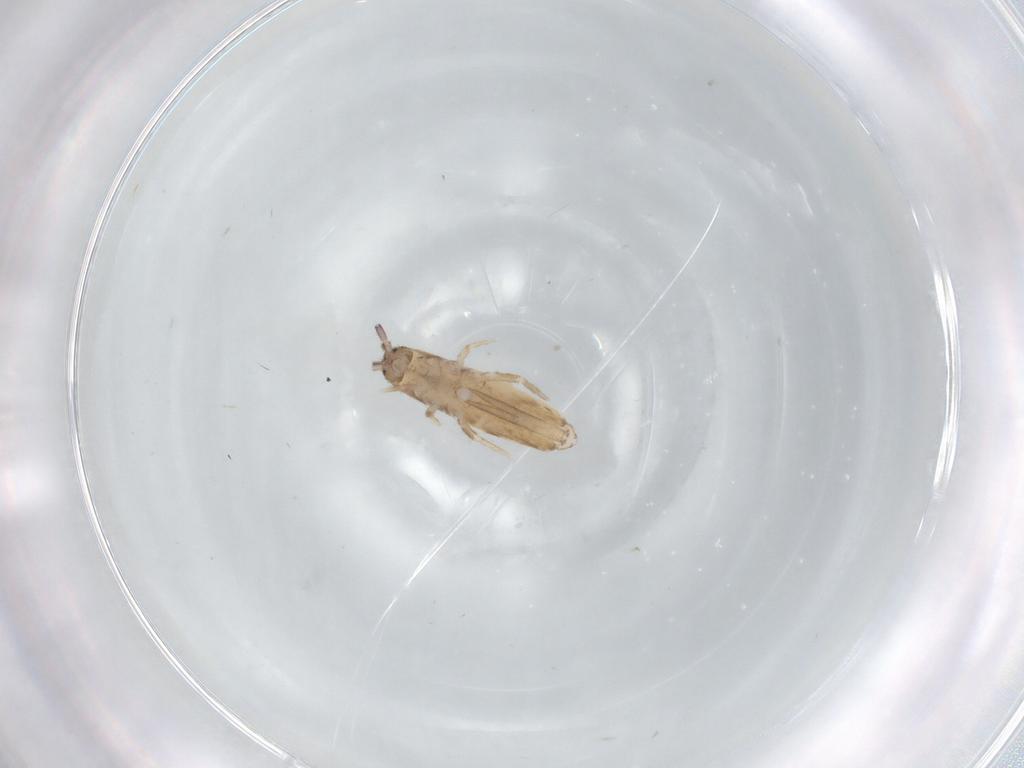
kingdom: Animalia
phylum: Arthropoda
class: Collembola
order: Entomobryomorpha
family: Entomobryidae
